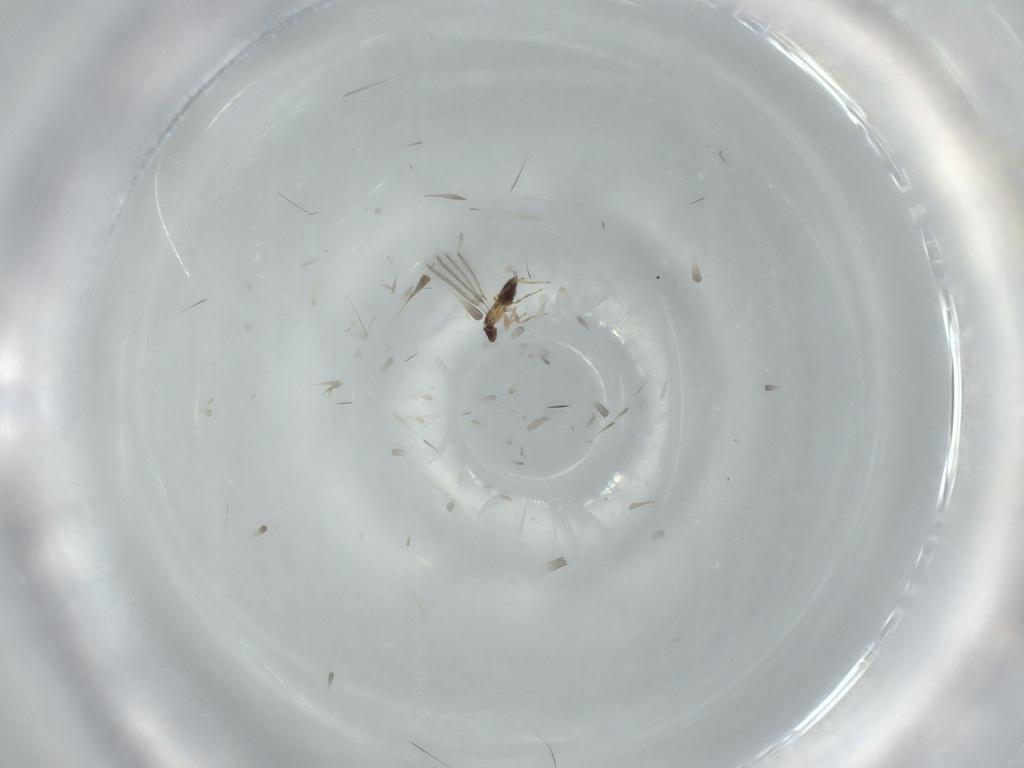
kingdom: Animalia
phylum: Arthropoda
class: Insecta
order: Hymenoptera
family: Mymaridae
